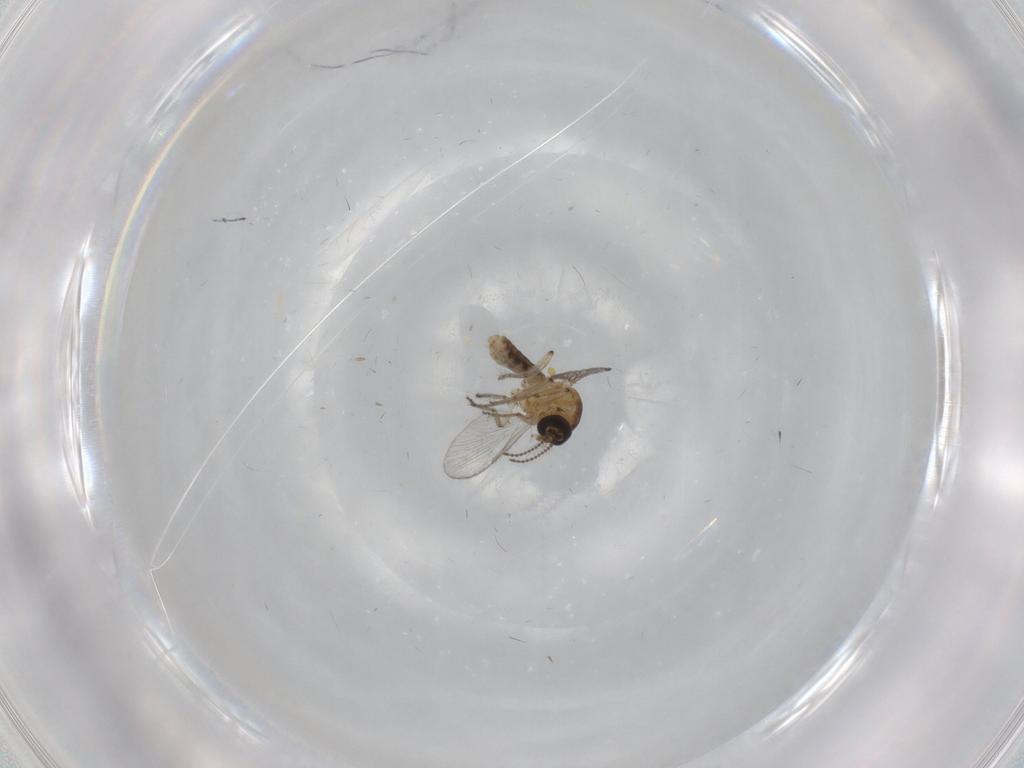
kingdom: Animalia
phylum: Arthropoda
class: Insecta
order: Diptera
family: Ceratopogonidae
